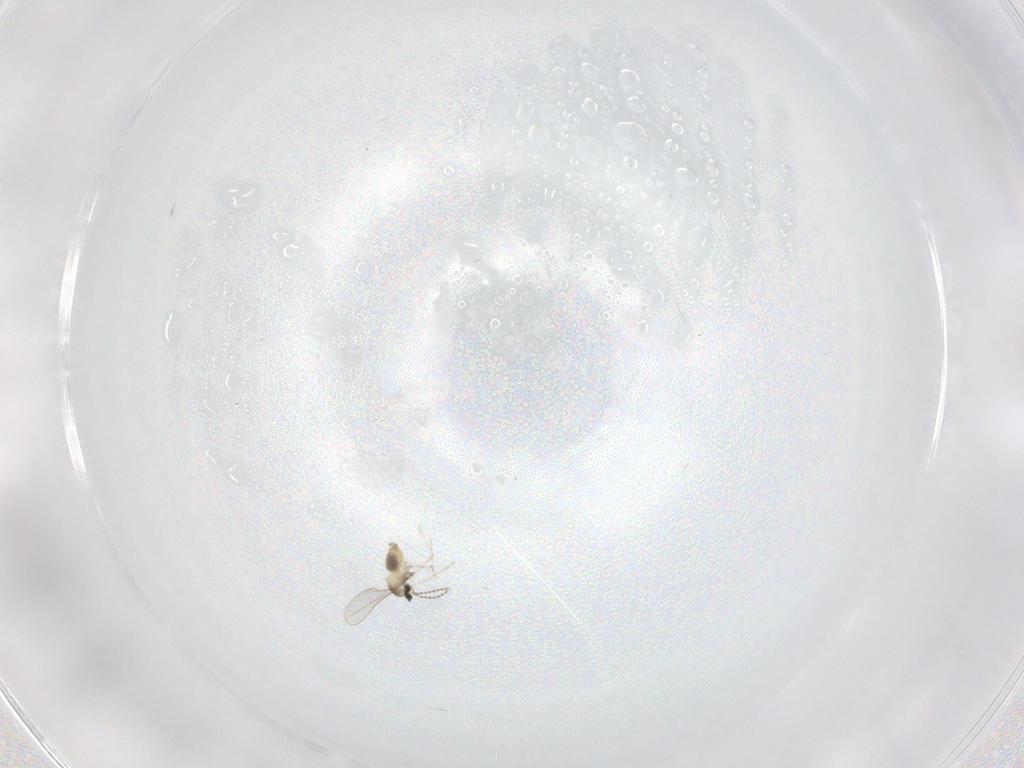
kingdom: Animalia
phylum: Arthropoda
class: Insecta
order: Diptera
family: Cecidomyiidae
